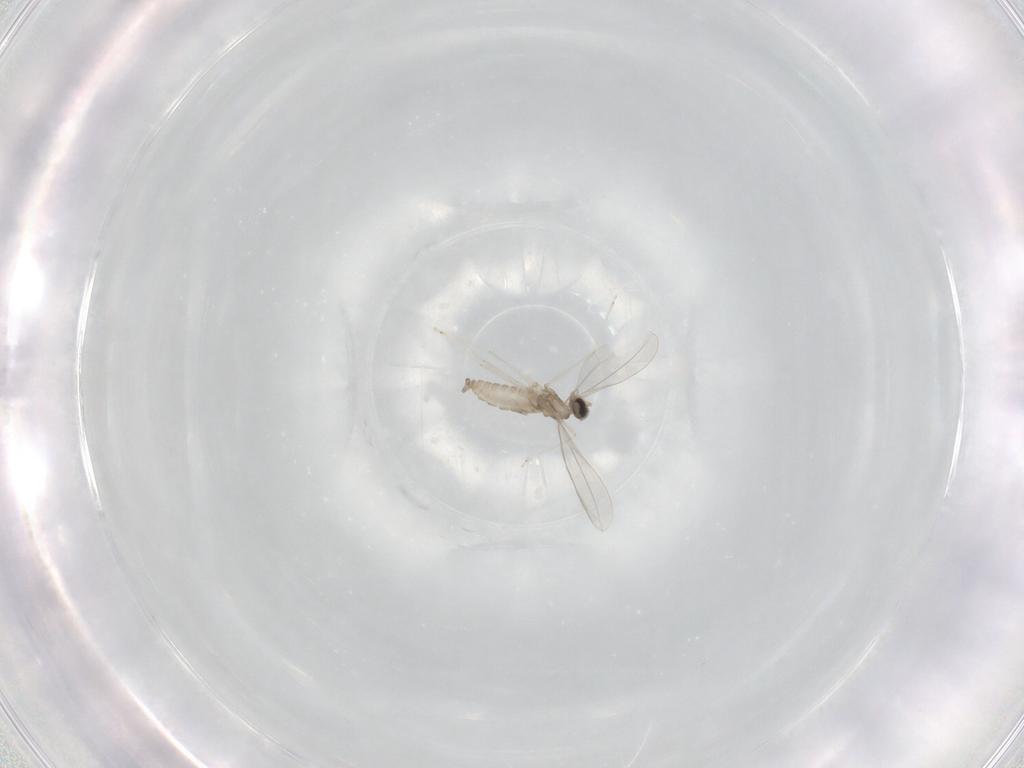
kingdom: Animalia
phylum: Arthropoda
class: Insecta
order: Diptera
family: Cecidomyiidae
